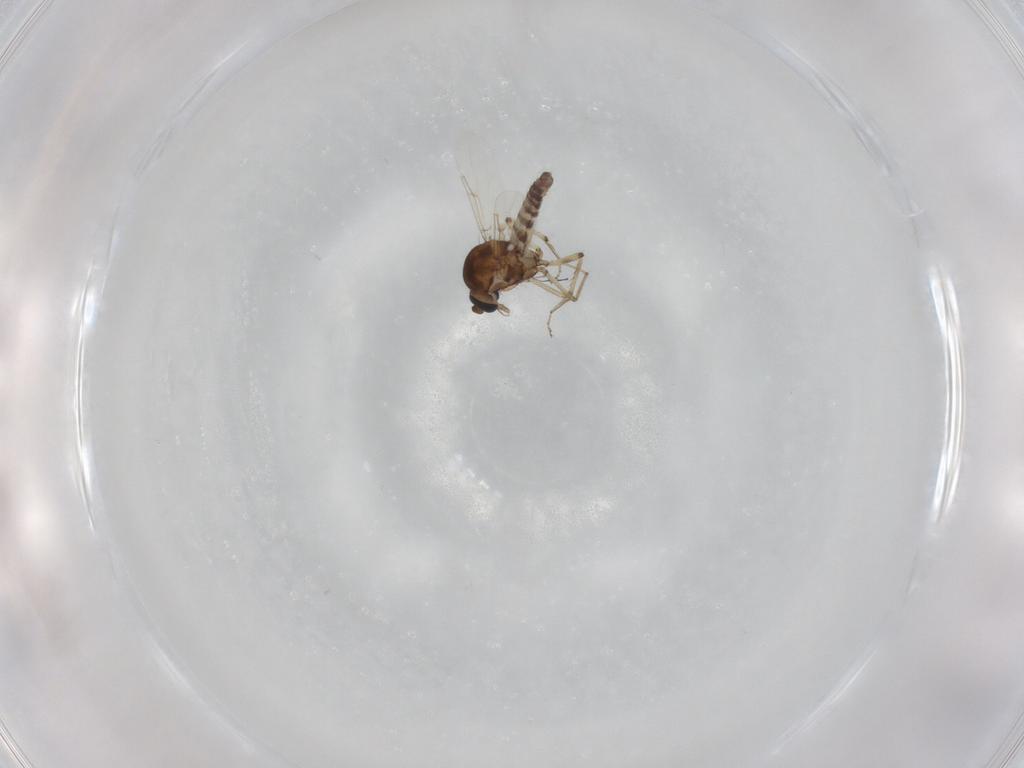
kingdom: Animalia
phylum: Arthropoda
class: Insecta
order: Diptera
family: Ceratopogonidae
